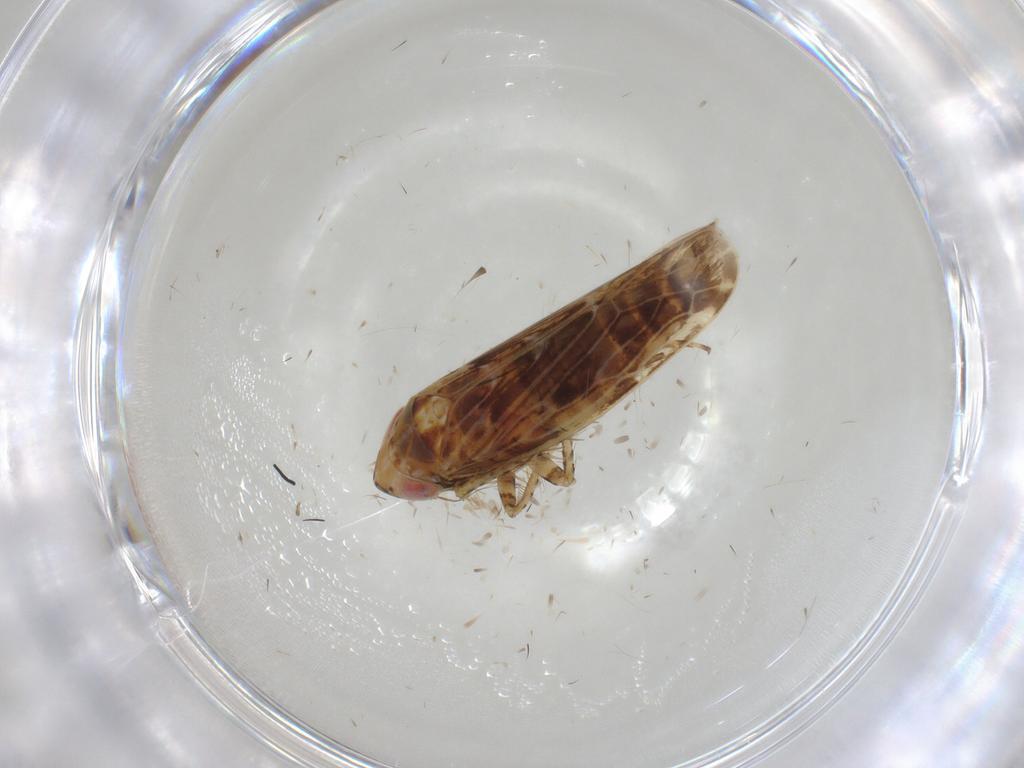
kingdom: Animalia
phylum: Arthropoda
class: Insecta
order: Hemiptera
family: Cicadellidae
